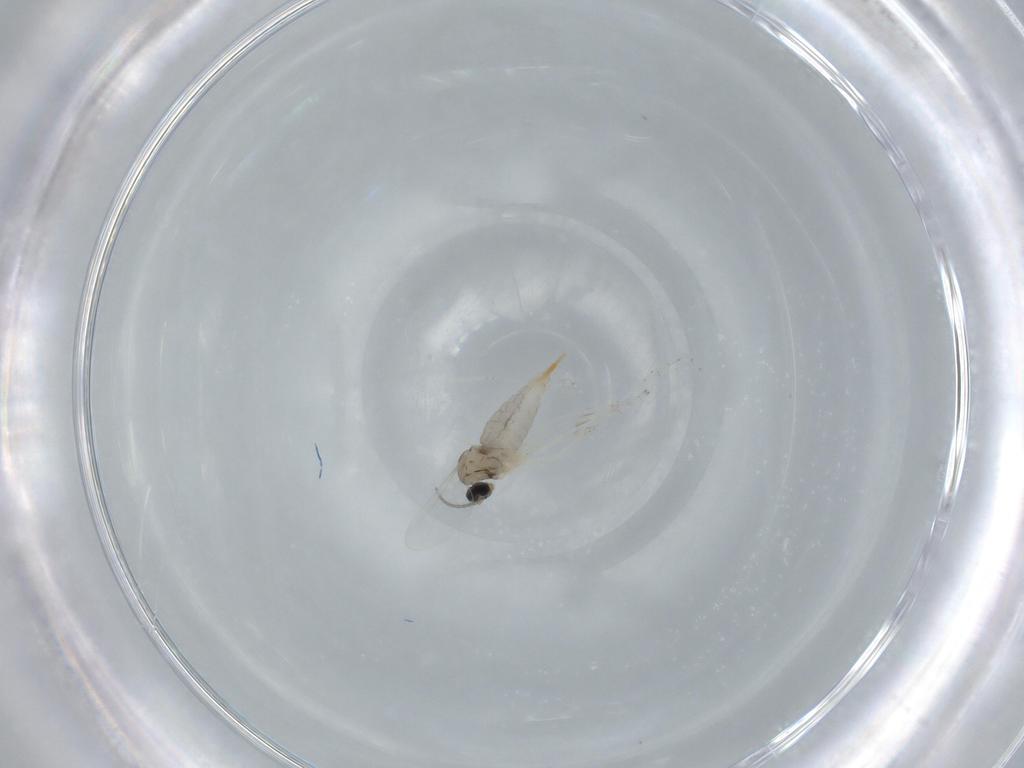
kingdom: Animalia
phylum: Arthropoda
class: Insecta
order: Diptera
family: Cecidomyiidae
